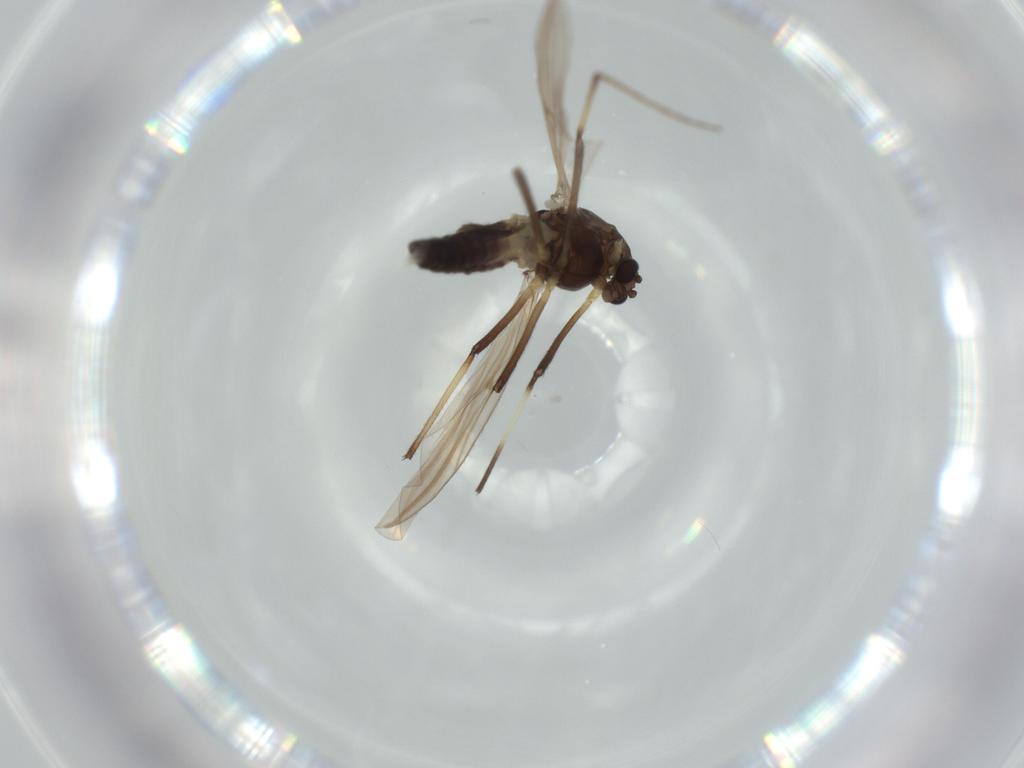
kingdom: Animalia
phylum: Arthropoda
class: Insecta
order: Diptera
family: Chironomidae
